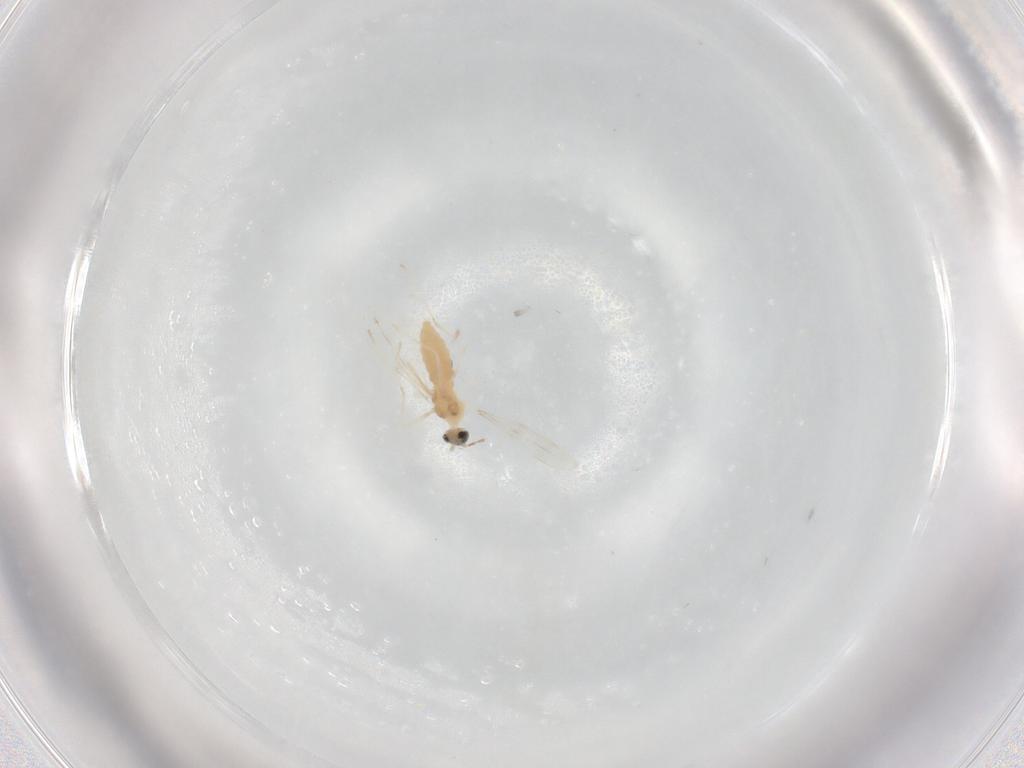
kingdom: Animalia
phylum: Arthropoda
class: Insecta
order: Diptera
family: Cecidomyiidae
